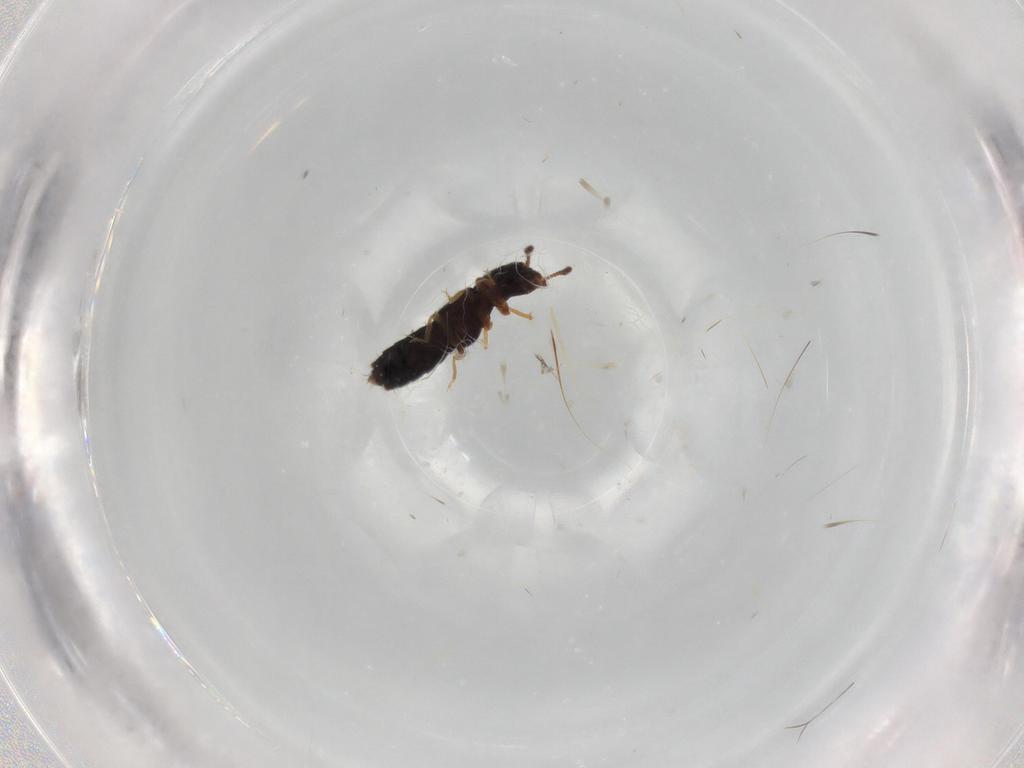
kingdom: Animalia
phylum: Arthropoda
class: Insecta
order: Coleoptera
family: Staphylinidae
